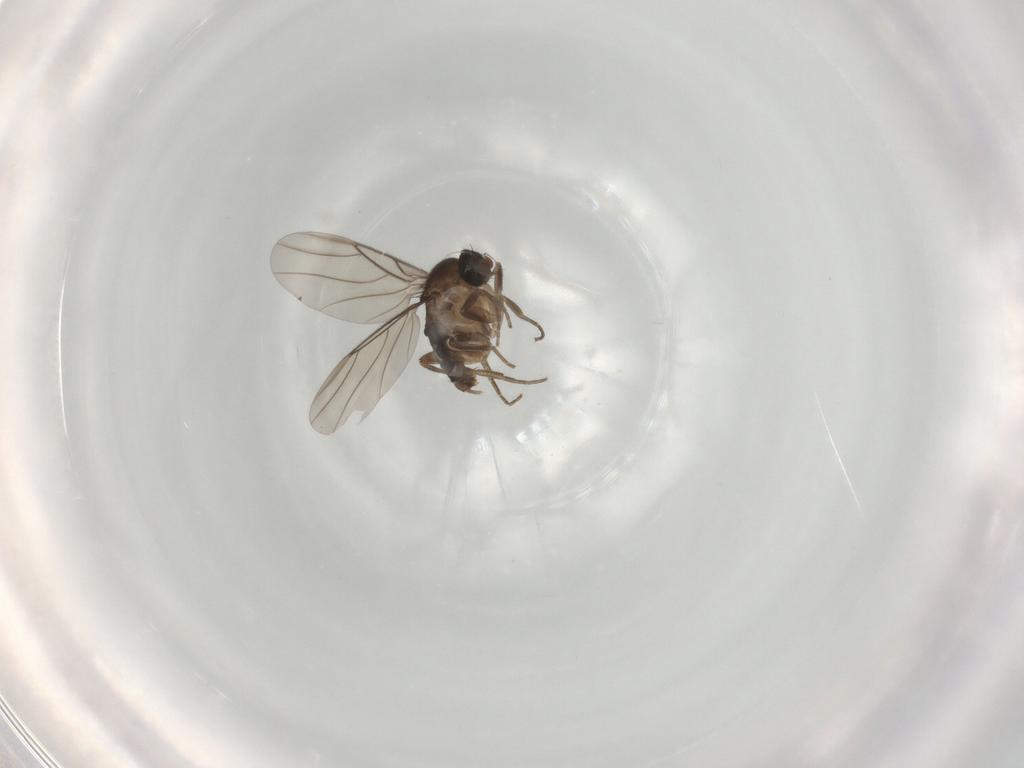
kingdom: Animalia
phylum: Arthropoda
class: Insecta
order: Diptera
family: Phoridae
